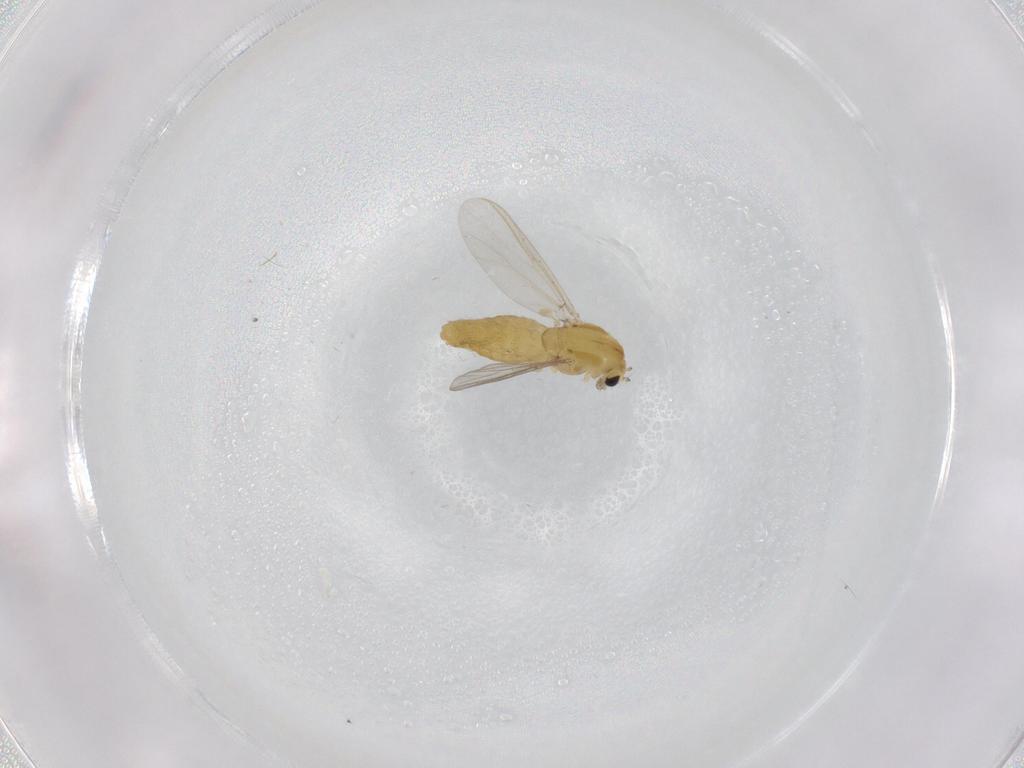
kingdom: Animalia
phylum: Arthropoda
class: Insecta
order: Diptera
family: Chironomidae
